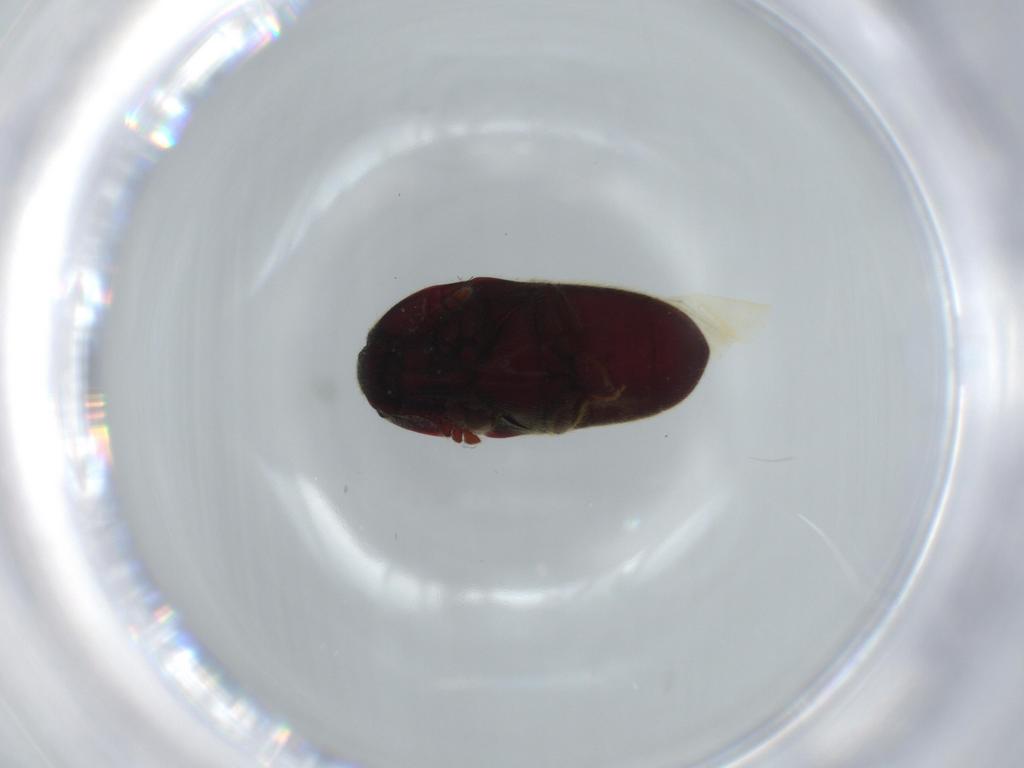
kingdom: Animalia
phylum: Arthropoda
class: Insecta
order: Coleoptera
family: Throscidae
